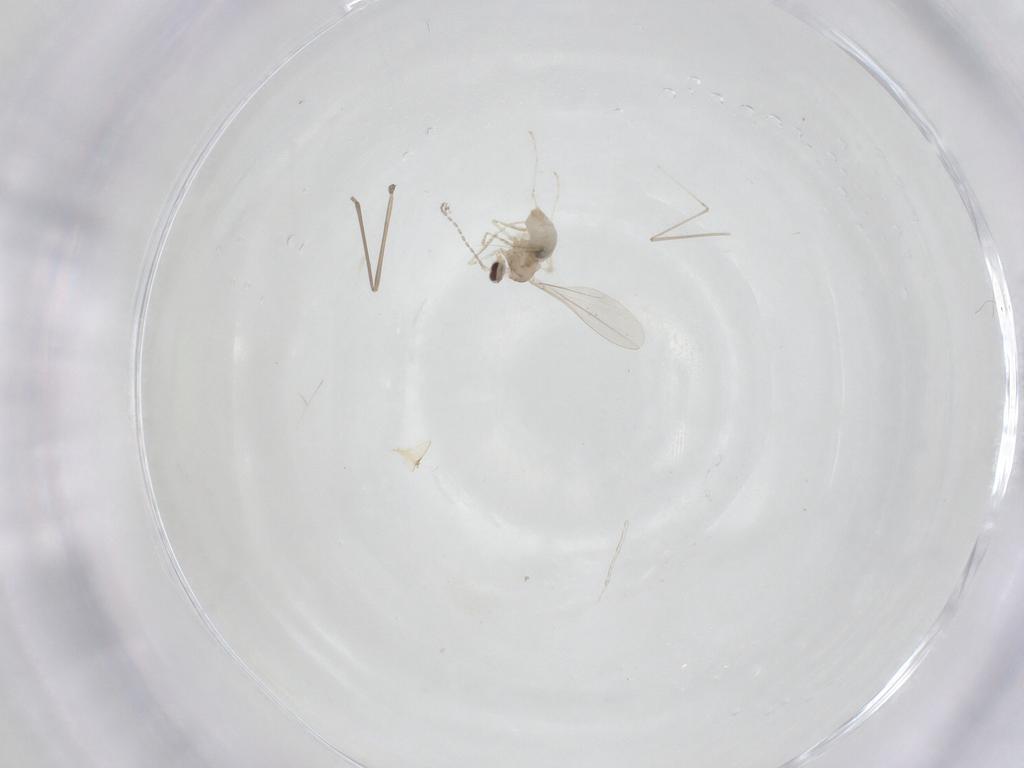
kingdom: Animalia
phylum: Arthropoda
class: Insecta
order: Diptera
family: Cecidomyiidae
